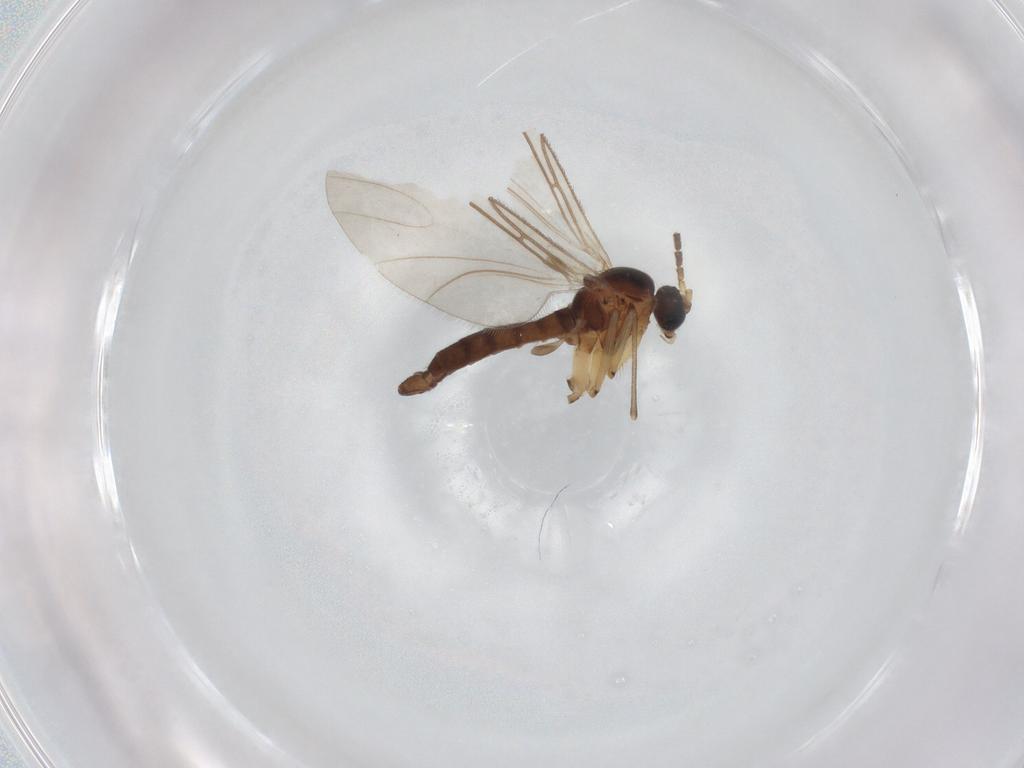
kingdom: Animalia
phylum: Arthropoda
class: Insecta
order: Diptera
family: Sciaridae
